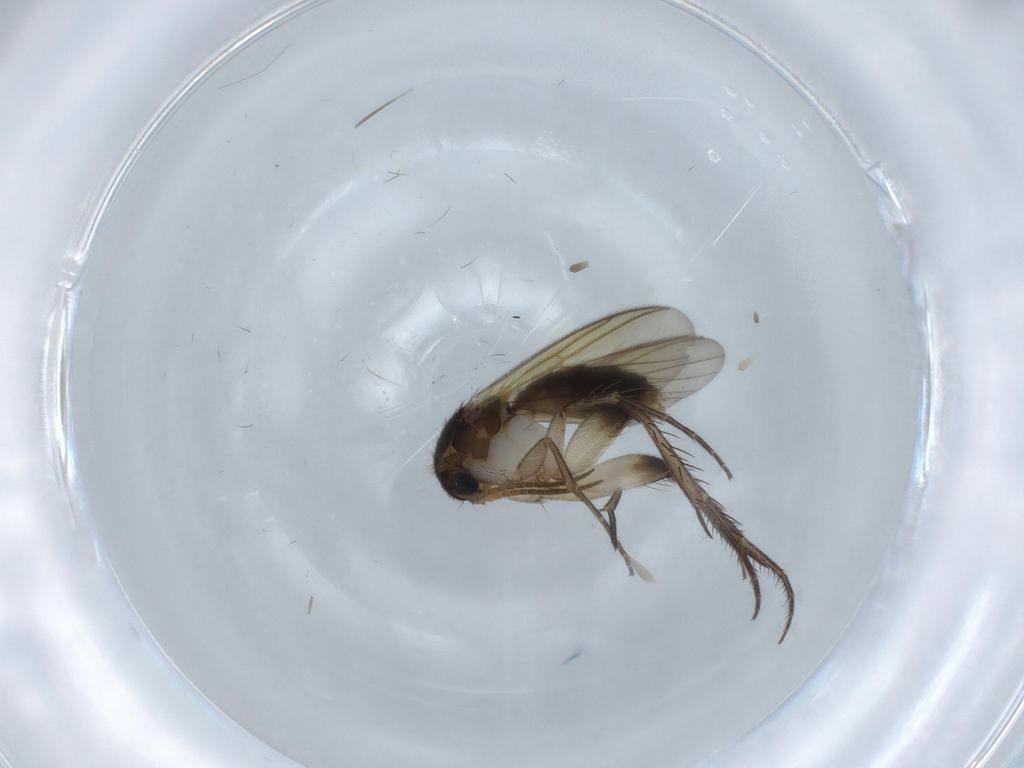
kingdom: Animalia
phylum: Arthropoda
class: Insecta
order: Diptera
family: Mycetophilidae
